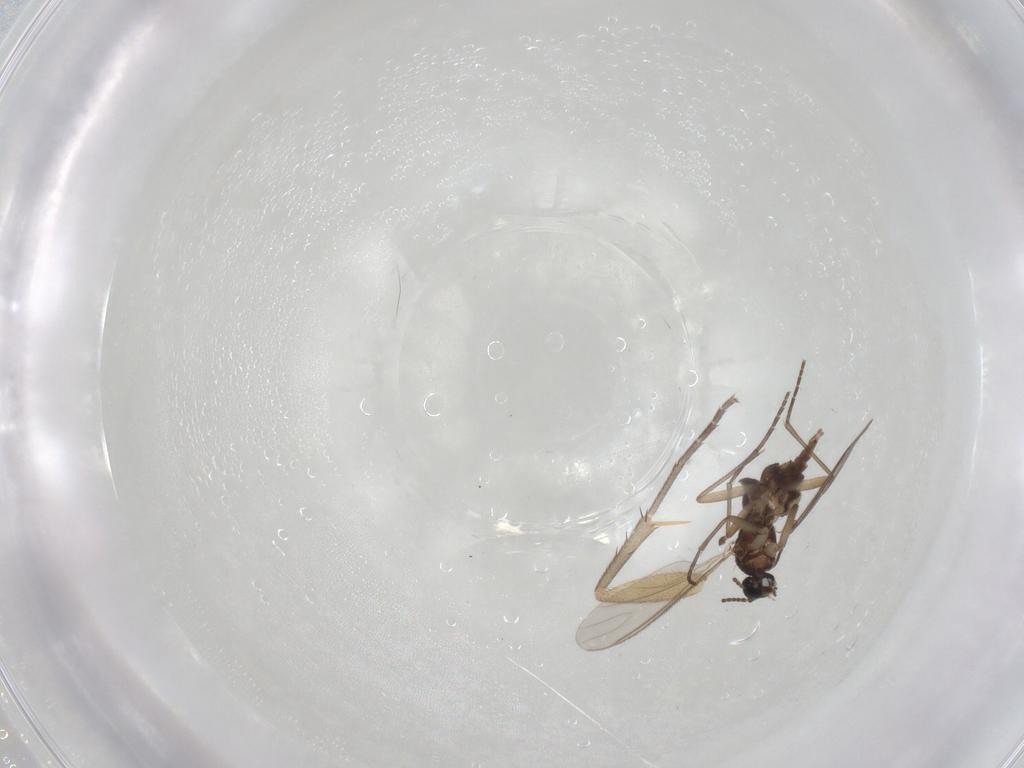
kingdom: Animalia
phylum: Arthropoda
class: Insecta
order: Diptera
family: Mycetophilidae
